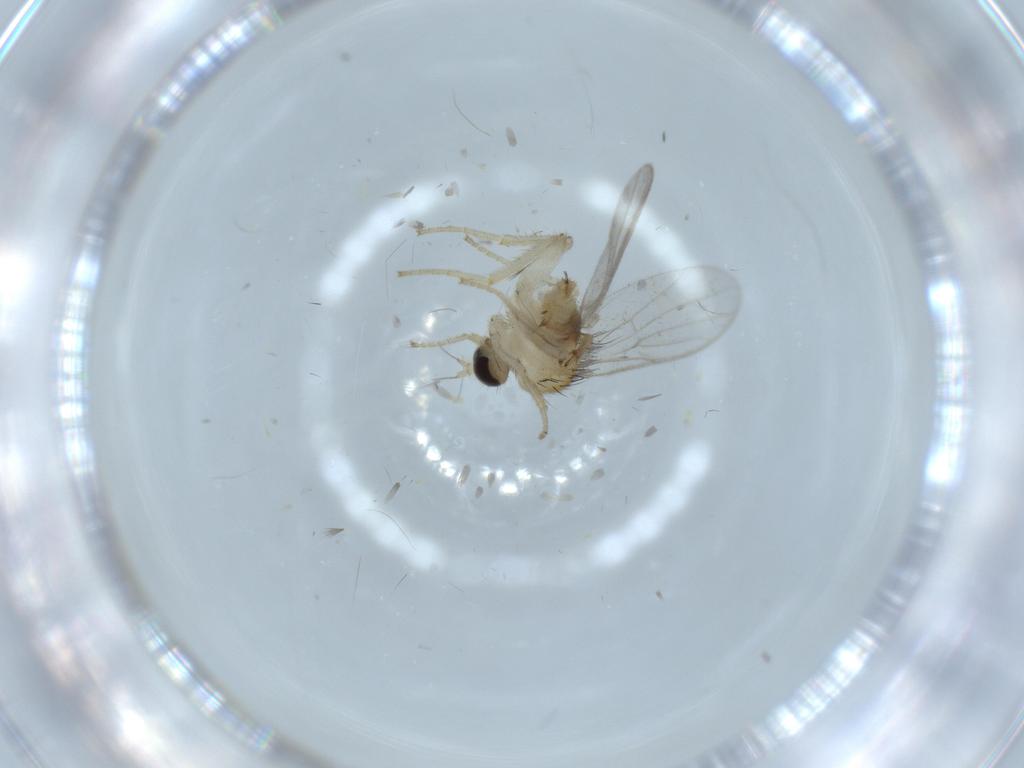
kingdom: Animalia
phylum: Arthropoda
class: Insecta
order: Diptera
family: Hybotidae
